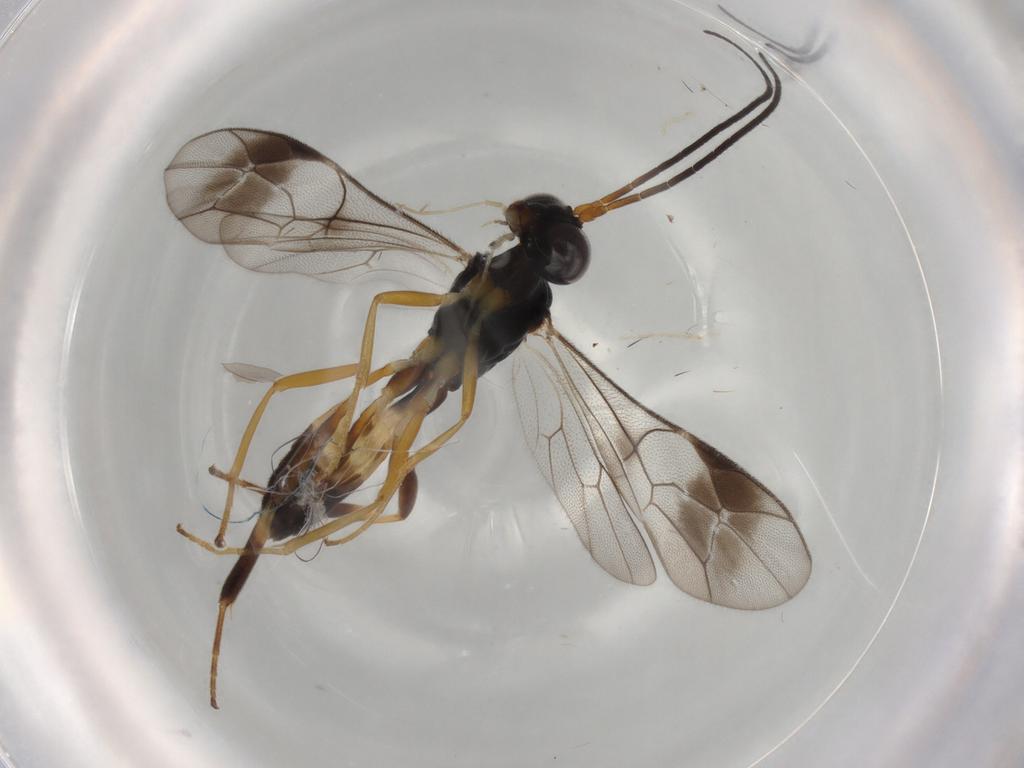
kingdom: Animalia
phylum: Arthropoda
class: Insecta
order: Hymenoptera
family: Ichneumonidae
